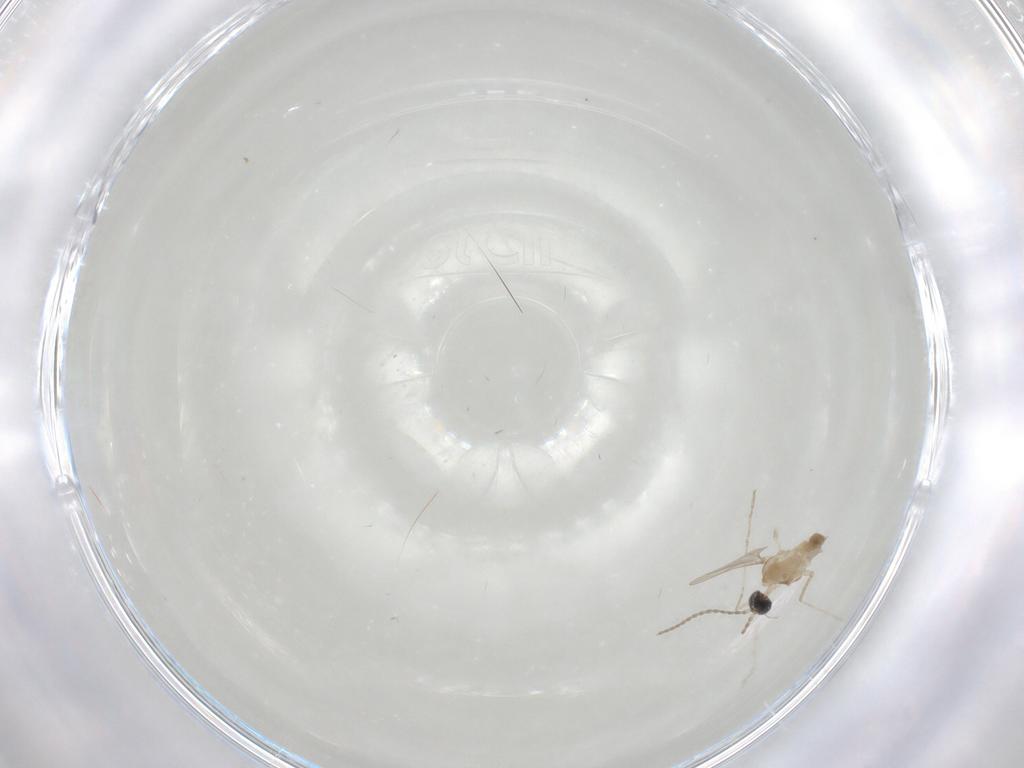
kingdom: Animalia
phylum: Arthropoda
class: Insecta
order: Diptera
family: Cecidomyiidae
